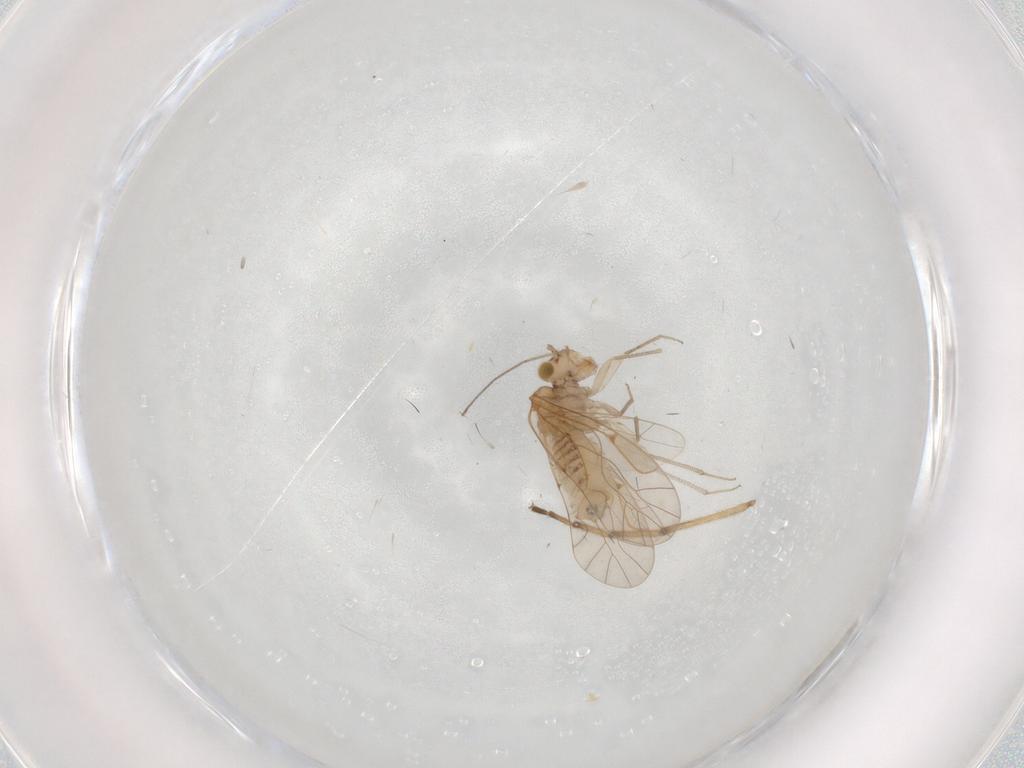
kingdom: Animalia
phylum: Arthropoda
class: Insecta
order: Psocodea
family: Lachesillidae
